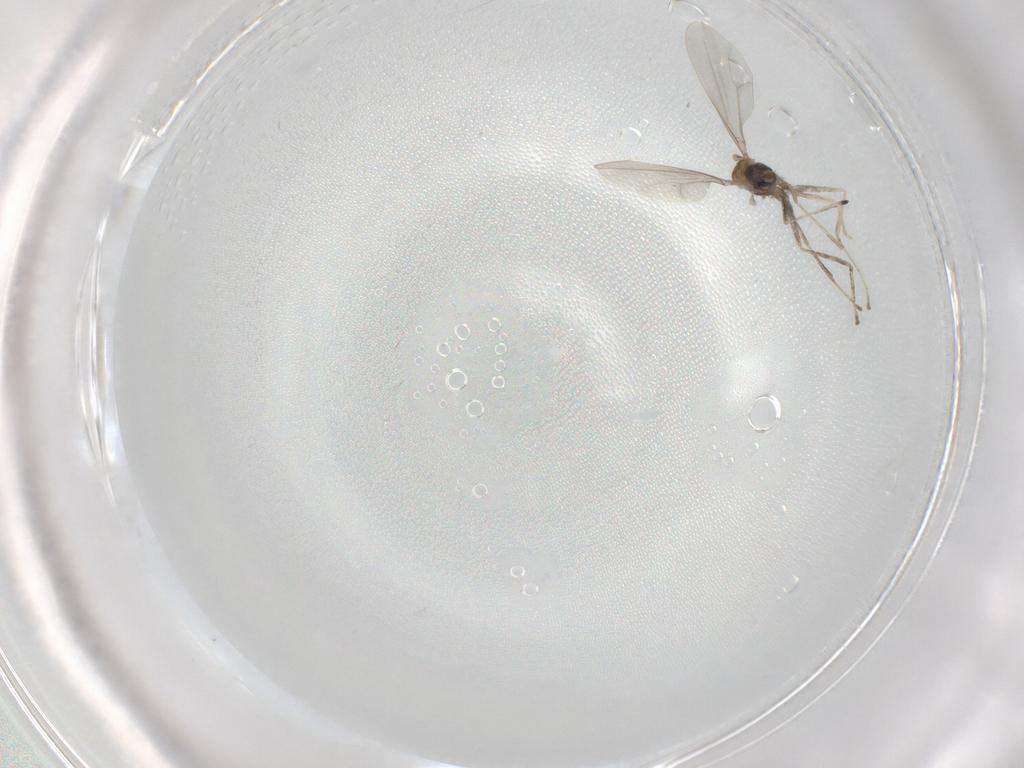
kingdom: Animalia
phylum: Arthropoda
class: Insecta
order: Diptera
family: Cecidomyiidae
